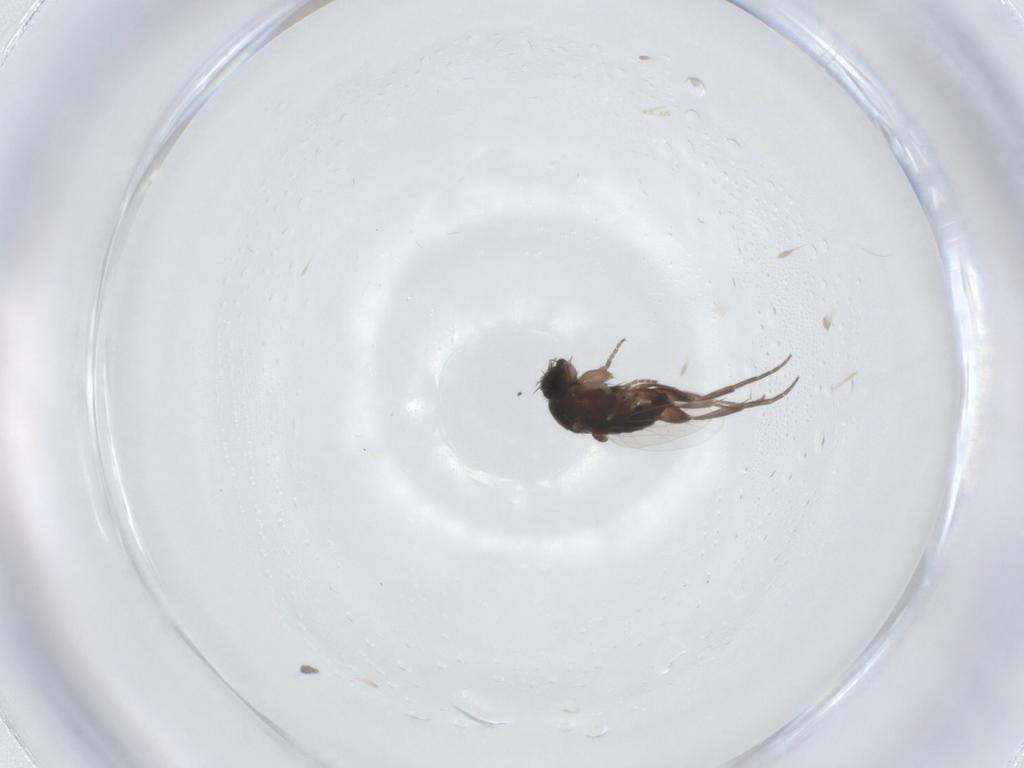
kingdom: Animalia
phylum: Arthropoda
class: Insecta
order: Diptera
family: Phoridae
